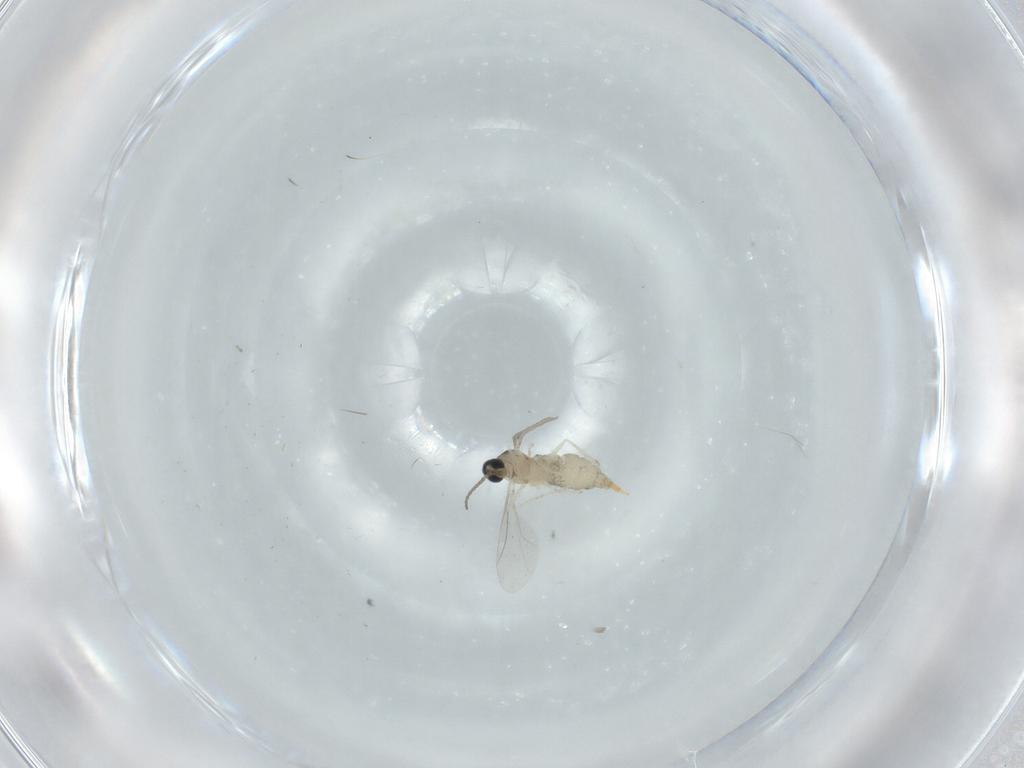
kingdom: Animalia
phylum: Arthropoda
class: Insecta
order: Diptera
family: Cecidomyiidae
